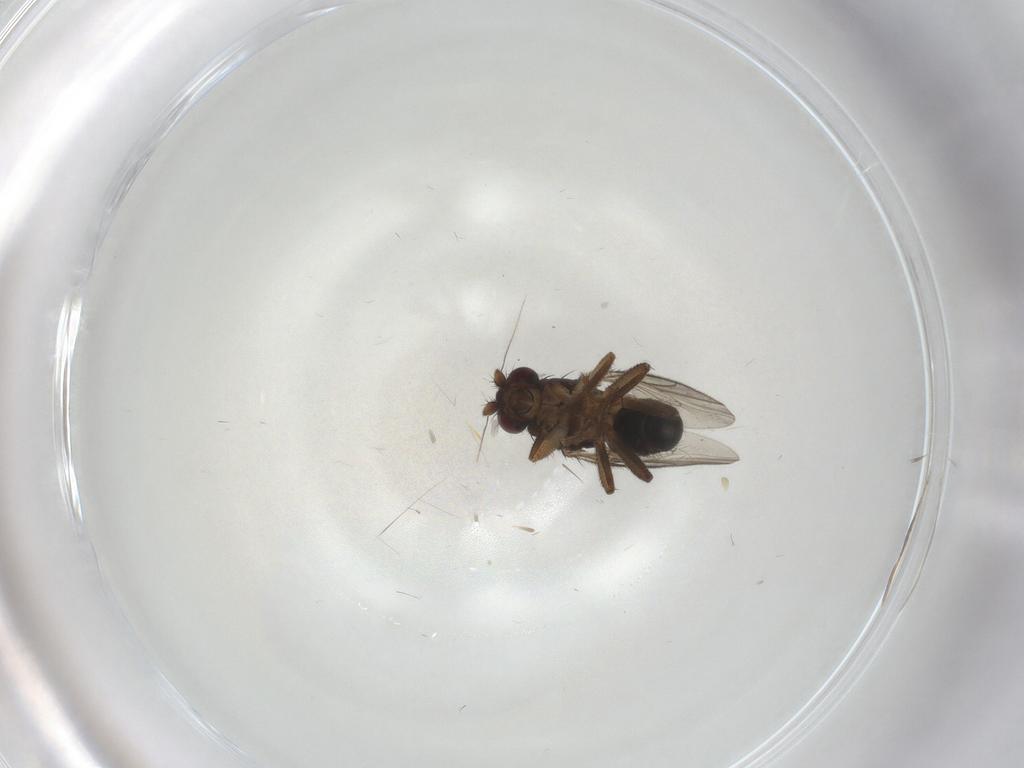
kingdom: Animalia
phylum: Arthropoda
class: Insecta
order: Diptera
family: Sphaeroceridae
